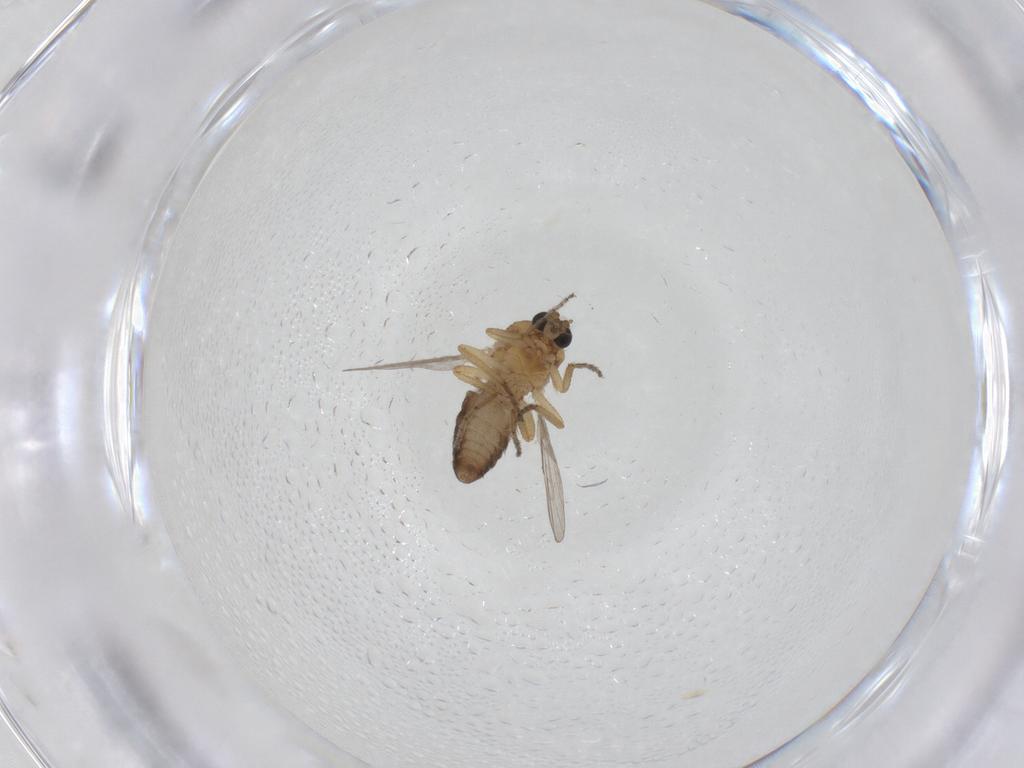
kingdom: Animalia
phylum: Arthropoda
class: Insecta
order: Diptera
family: Ceratopogonidae
